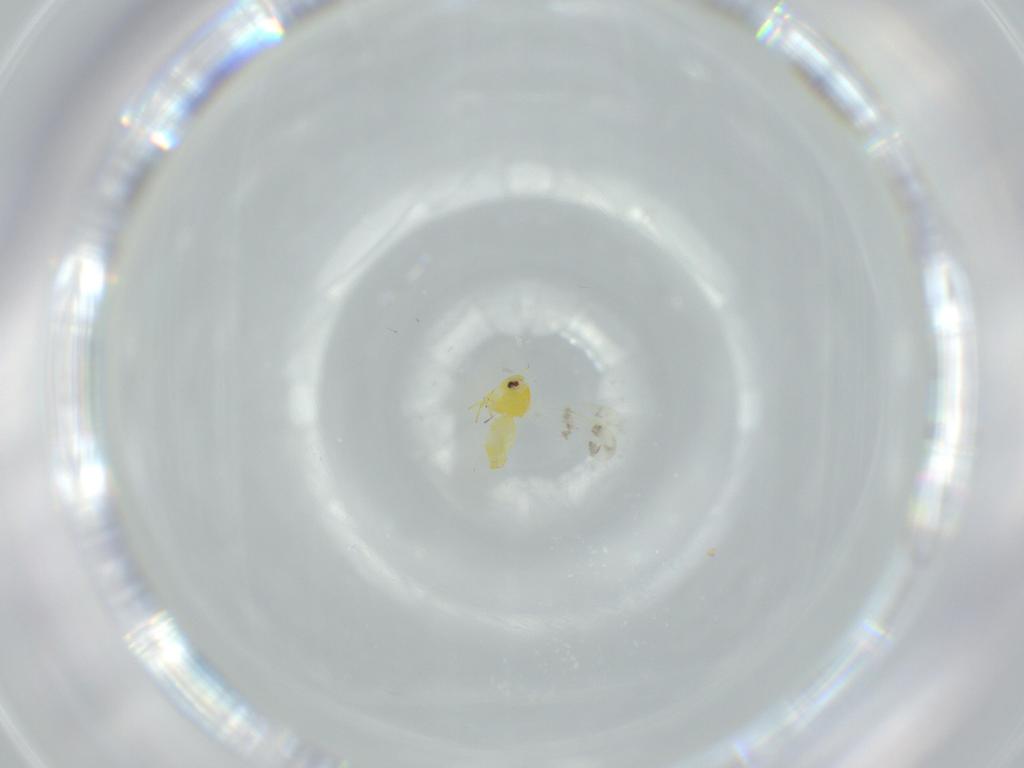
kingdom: Animalia
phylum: Arthropoda
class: Insecta
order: Hemiptera
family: Aleyrodidae
